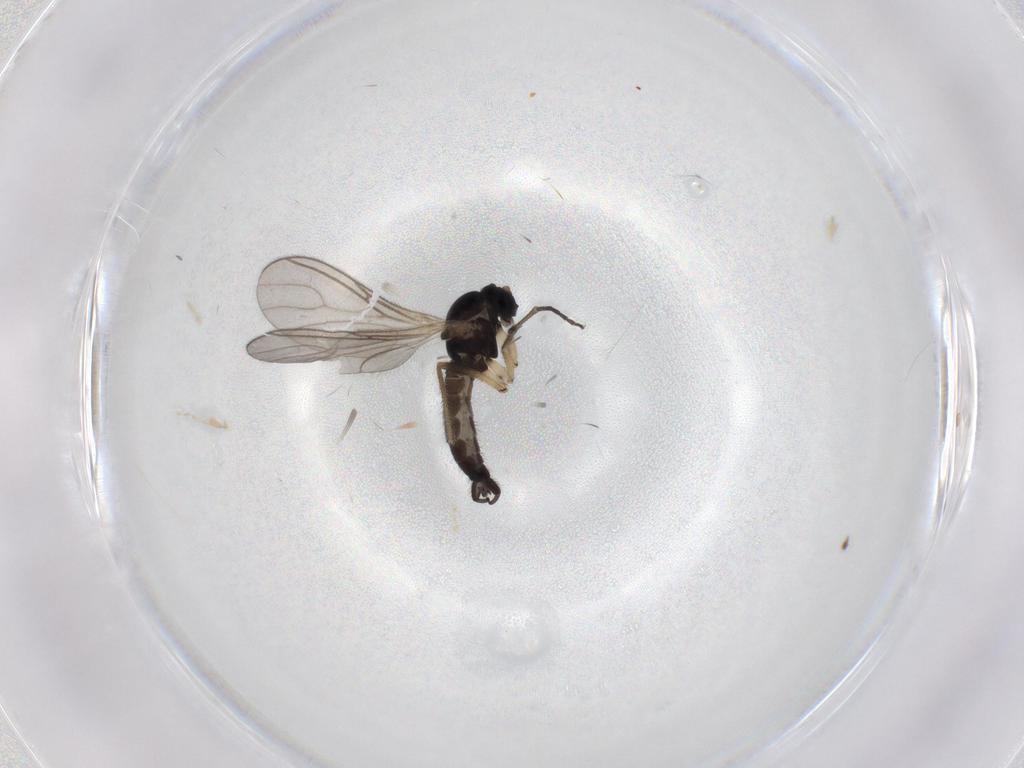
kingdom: Animalia
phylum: Arthropoda
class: Insecta
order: Diptera
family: Sciaridae
